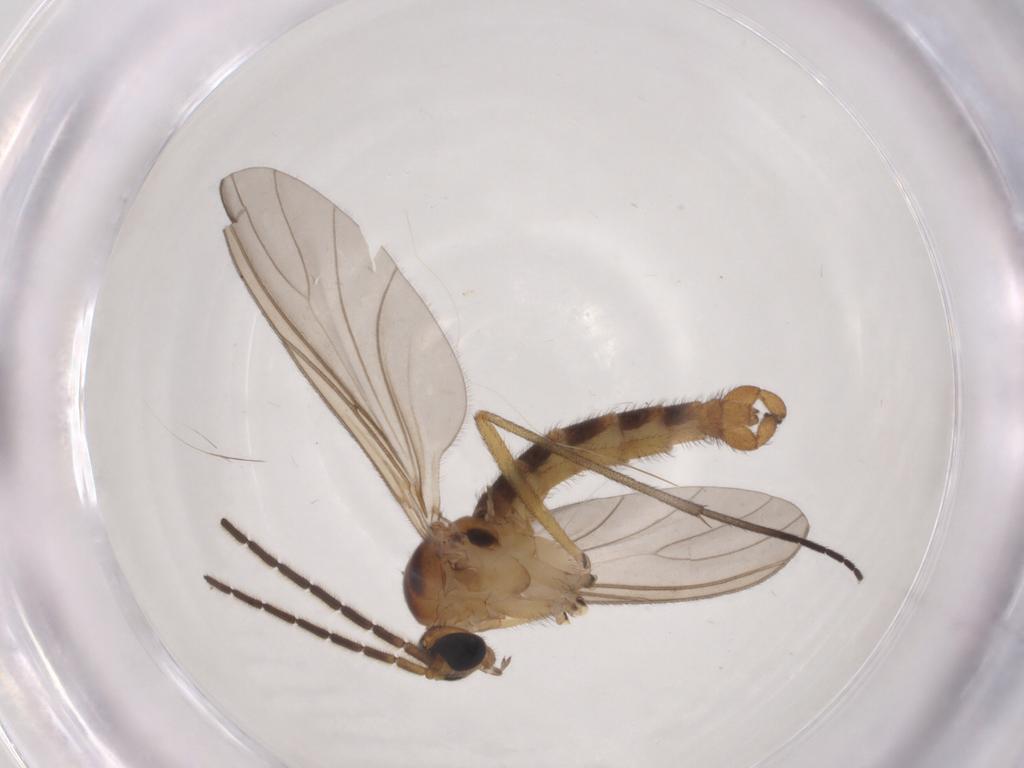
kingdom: Animalia
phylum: Arthropoda
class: Insecta
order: Diptera
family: Sciaridae
